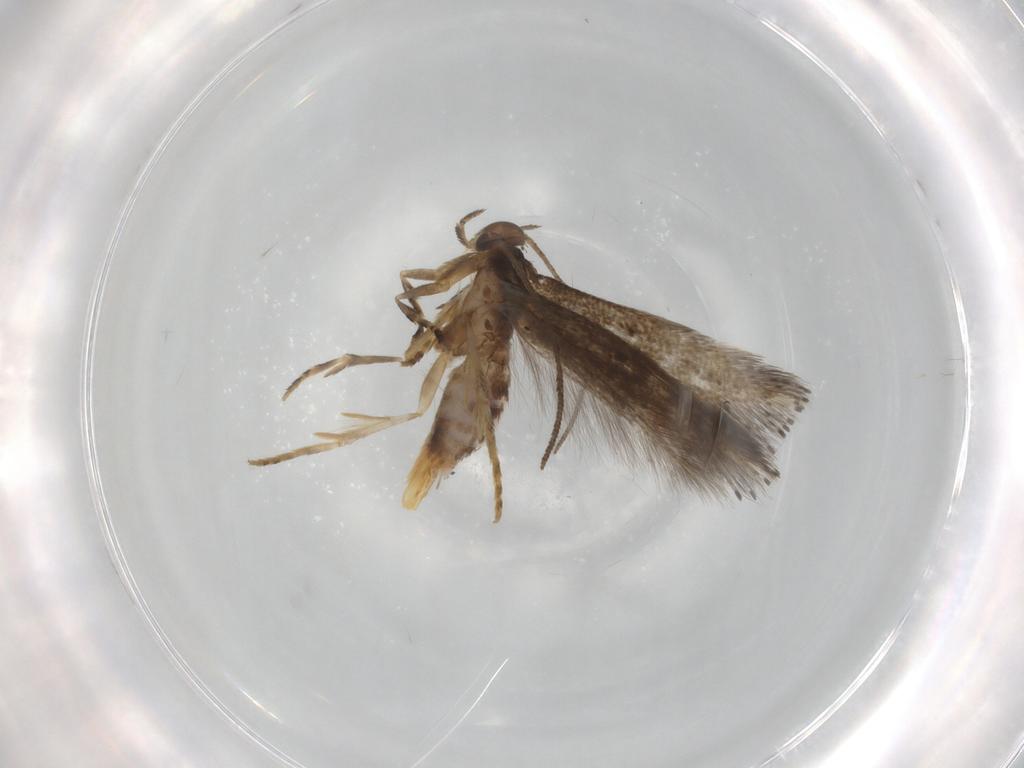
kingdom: Animalia
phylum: Arthropoda
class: Insecta
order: Lepidoptera
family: Elachistidae
